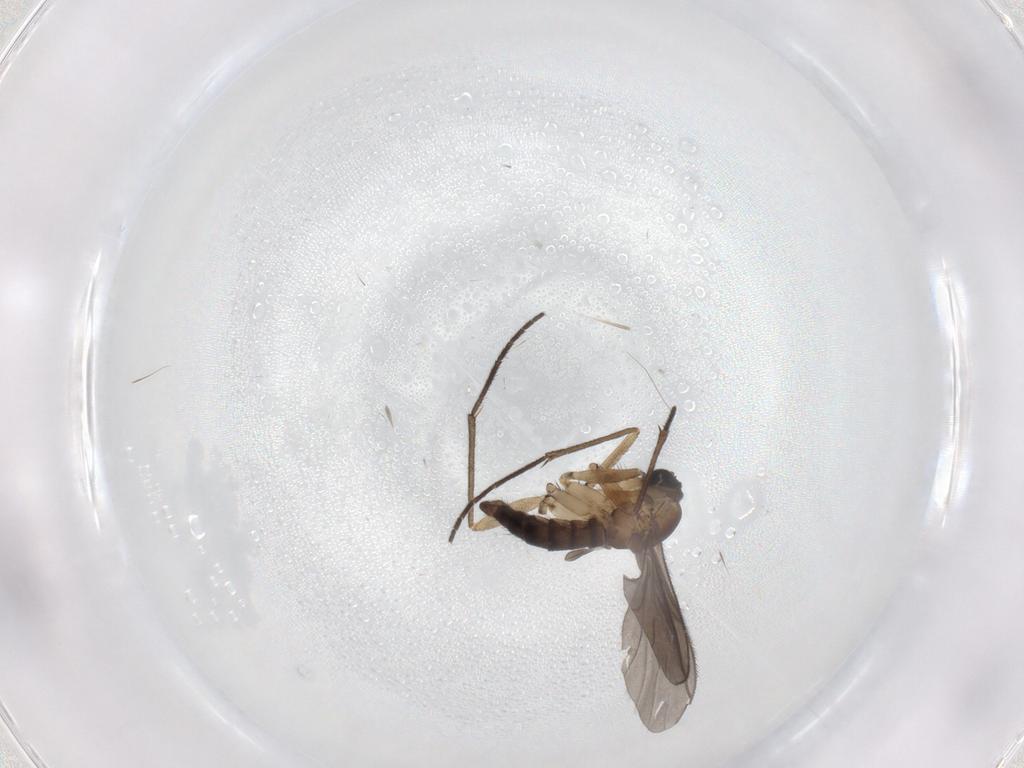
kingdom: Animalia
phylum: Arthropoda
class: Insecta
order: Diptera
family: Sciaridae
